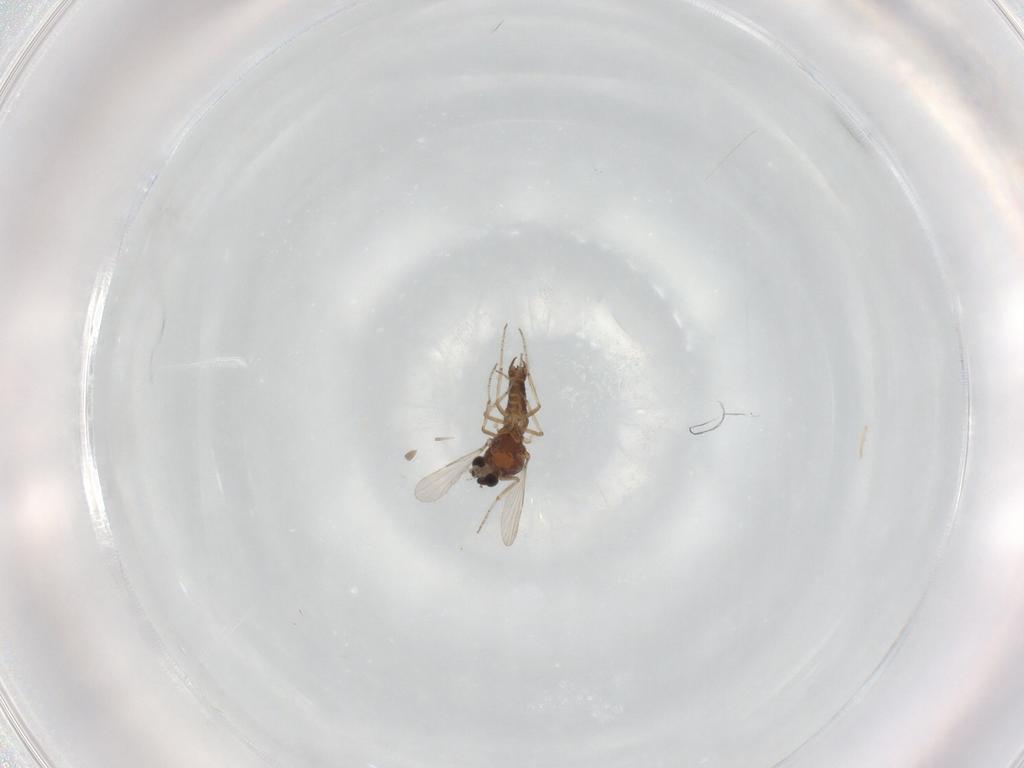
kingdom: Animalia
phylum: Arthropoda
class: Insecta
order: Diptera
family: Ceratopogonidae
